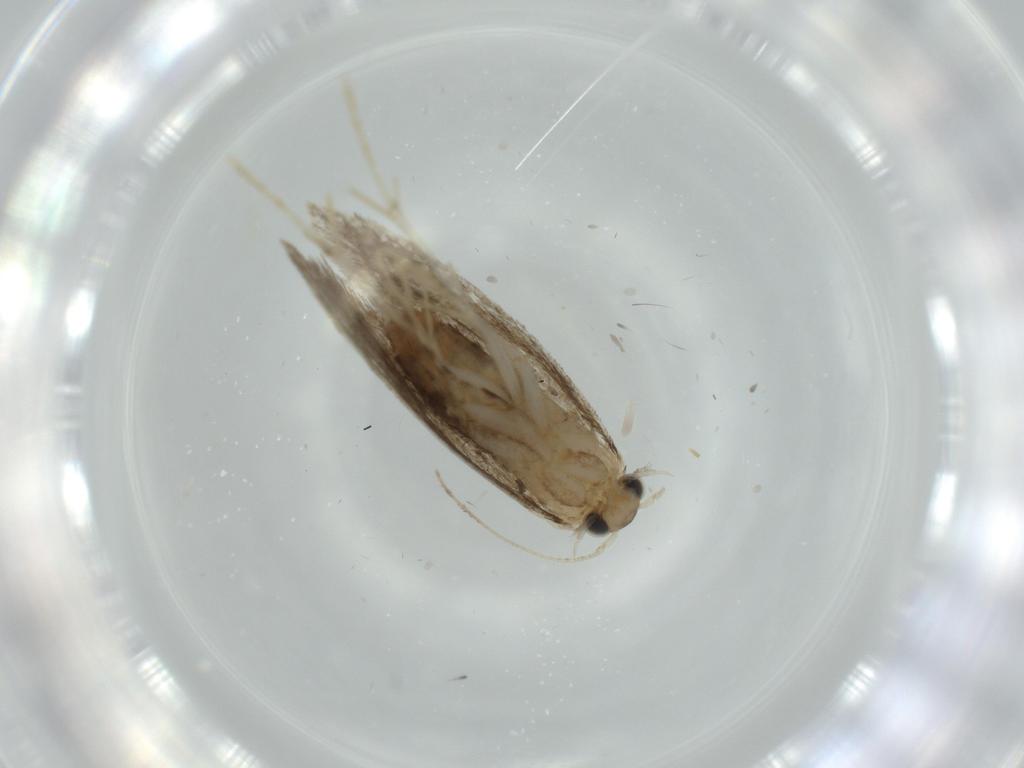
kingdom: Animalia
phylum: Arthropoda
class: Insecta
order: Lepidoptera
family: Tineidae
